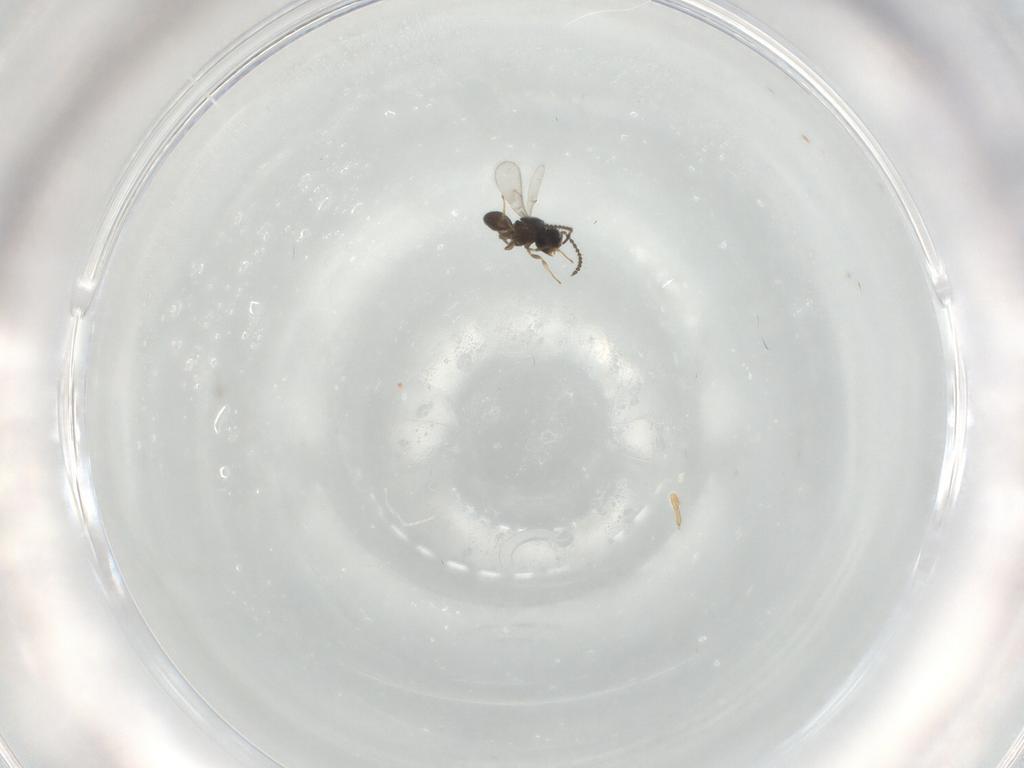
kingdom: Animalia
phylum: Arthropoda
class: Insecta
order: Hymenoptera
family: Scelionidae
